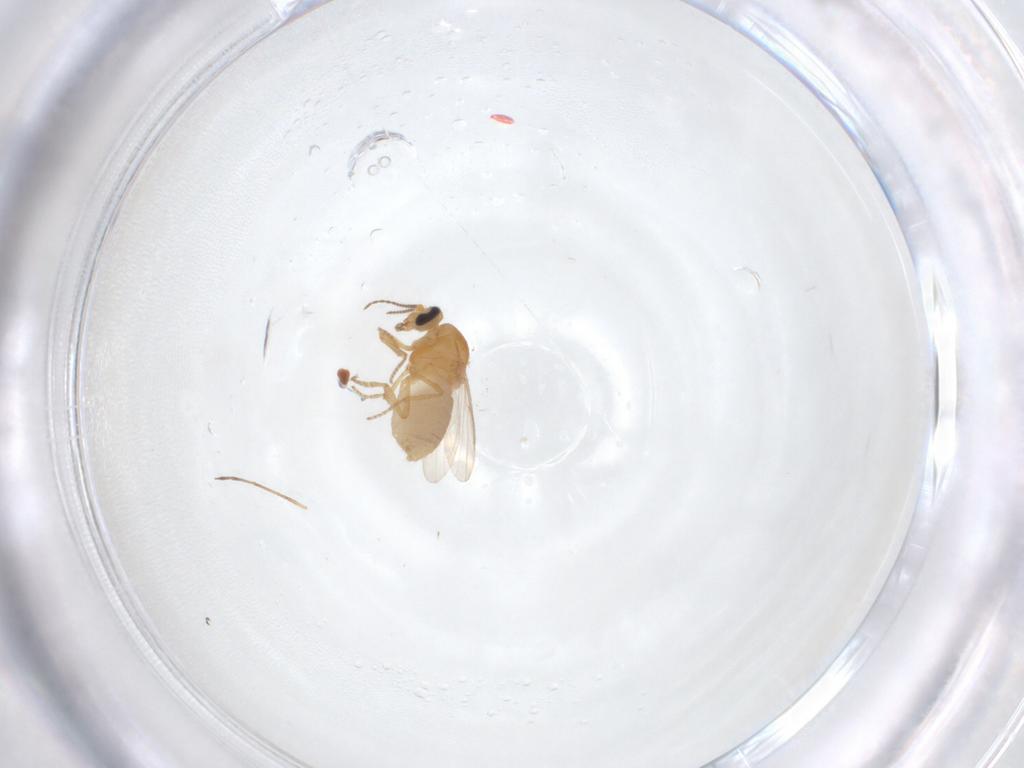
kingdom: Animalia
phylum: Arthropoda
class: Insecta
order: Diptera
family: Ceratopogonidae
